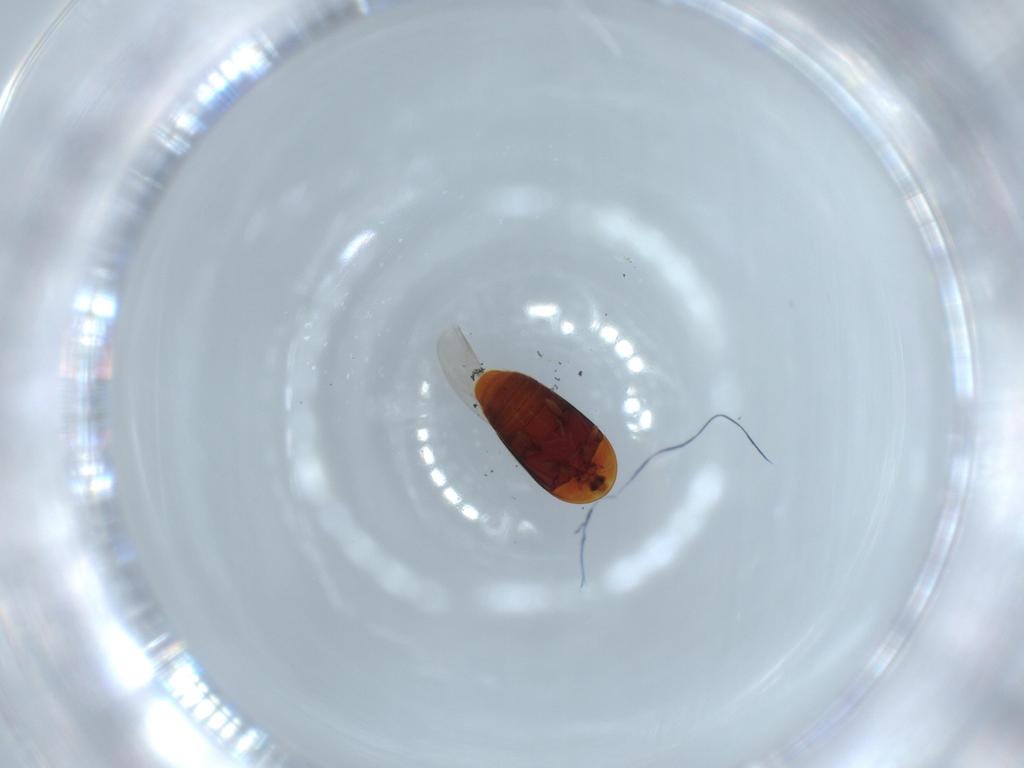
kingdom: Animalia
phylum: Arthropoda
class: Insecta
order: Coleoptera
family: Corylophidae
